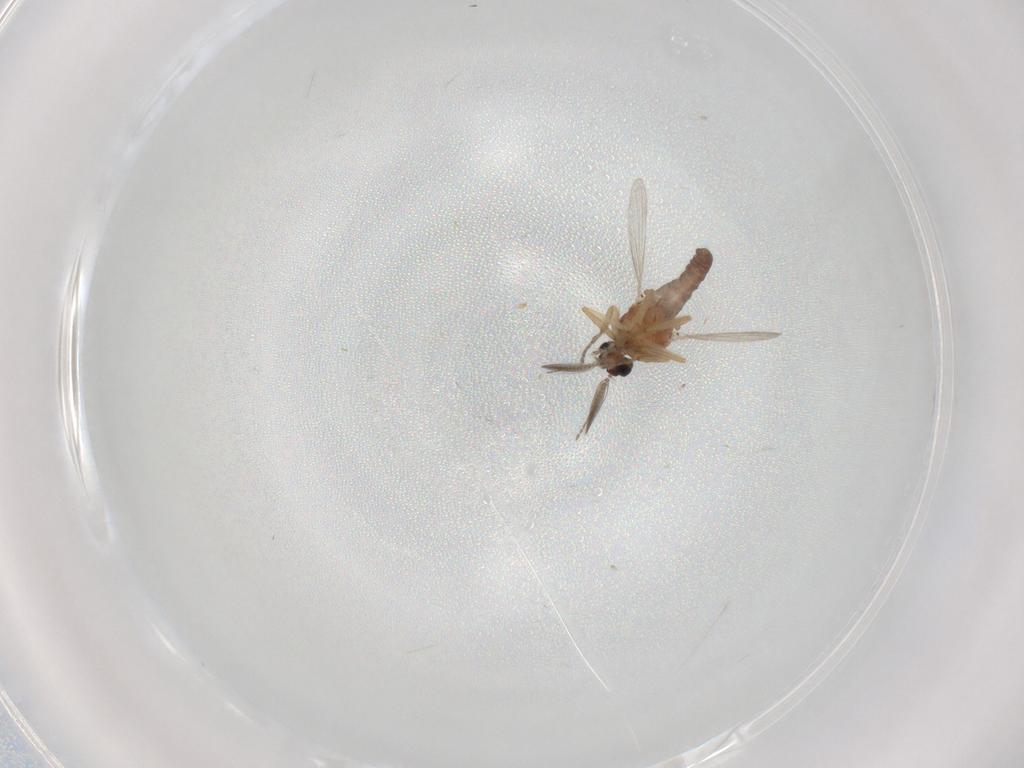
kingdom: Animalia
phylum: Arthropoda
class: Insecta
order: Diptera
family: Ceratopogonidae
